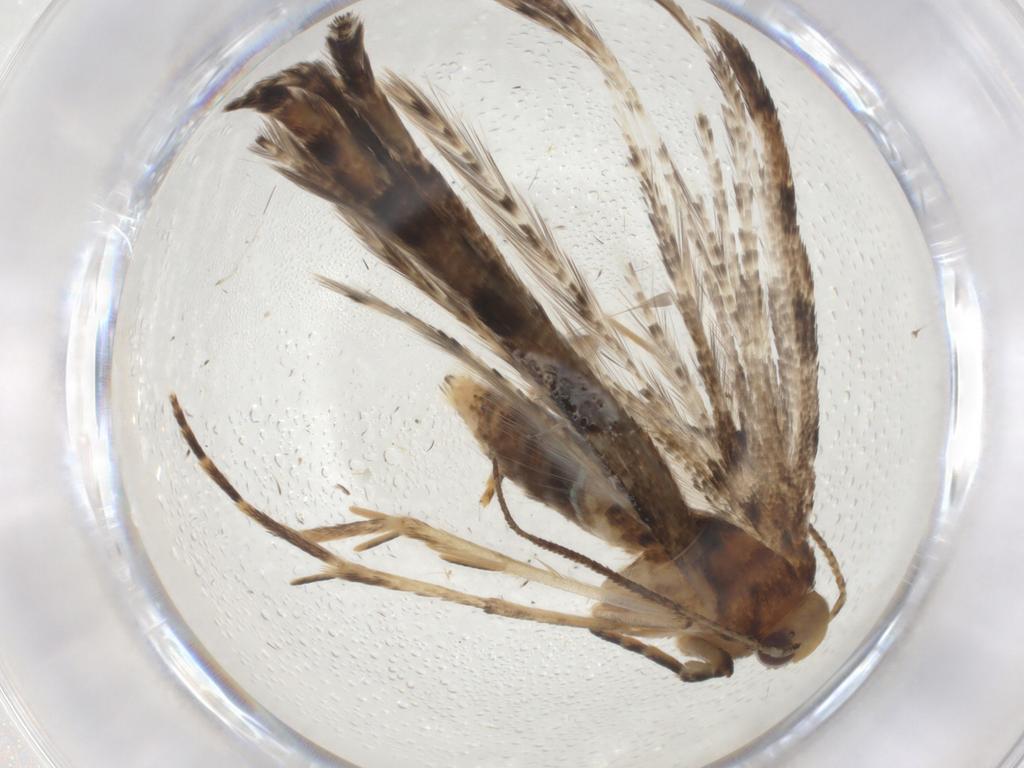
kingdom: Animalia
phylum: Arthropoda
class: Insecta
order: Lepidoptera
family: Alucitidae
